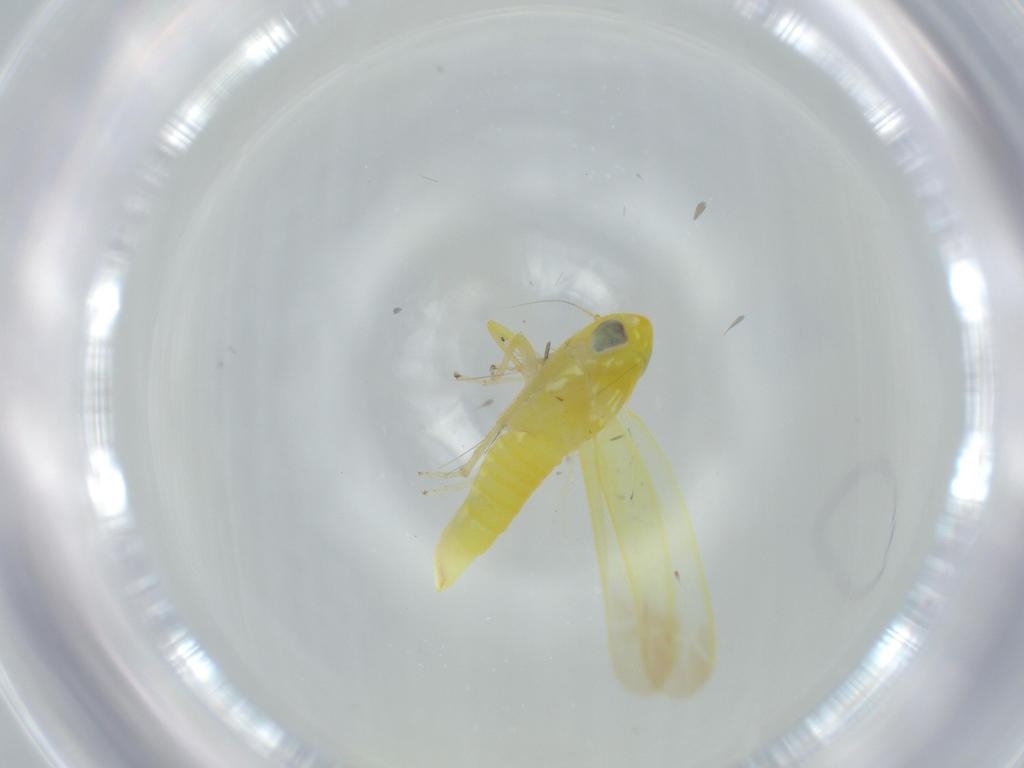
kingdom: Animalia
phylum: Arthropoda
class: Insecta
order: Hemiptera
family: Cicadellidae
